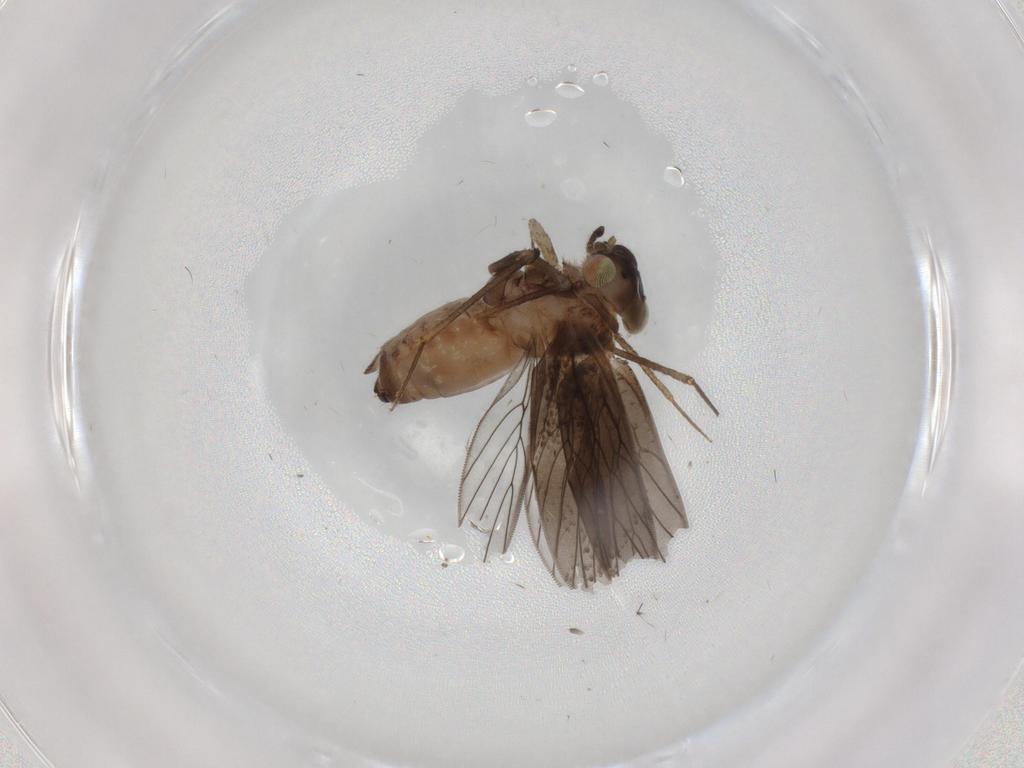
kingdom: Animalia
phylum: Arthropoda
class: Insecta
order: Psocodea
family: Lepidopsocidae
